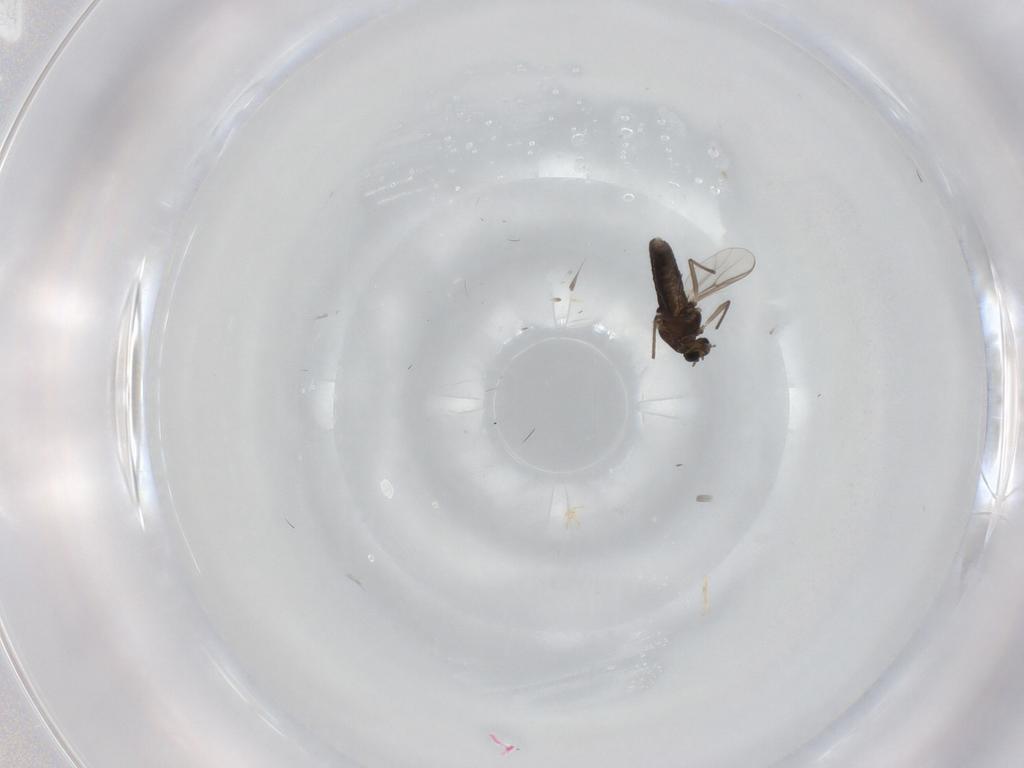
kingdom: Animalia
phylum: Arthropoda
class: Insecta
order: Diptera
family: Chironomidae
